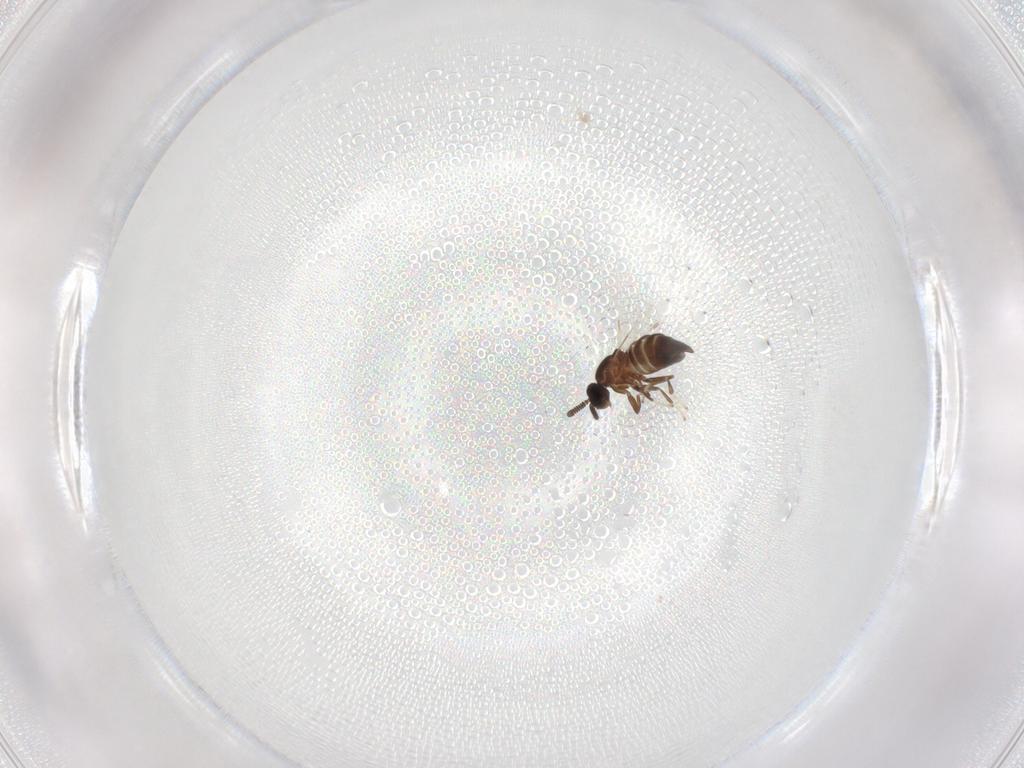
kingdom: Animalia
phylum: Arthropoda
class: Insecta
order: Diptera
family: Scatopsidae
